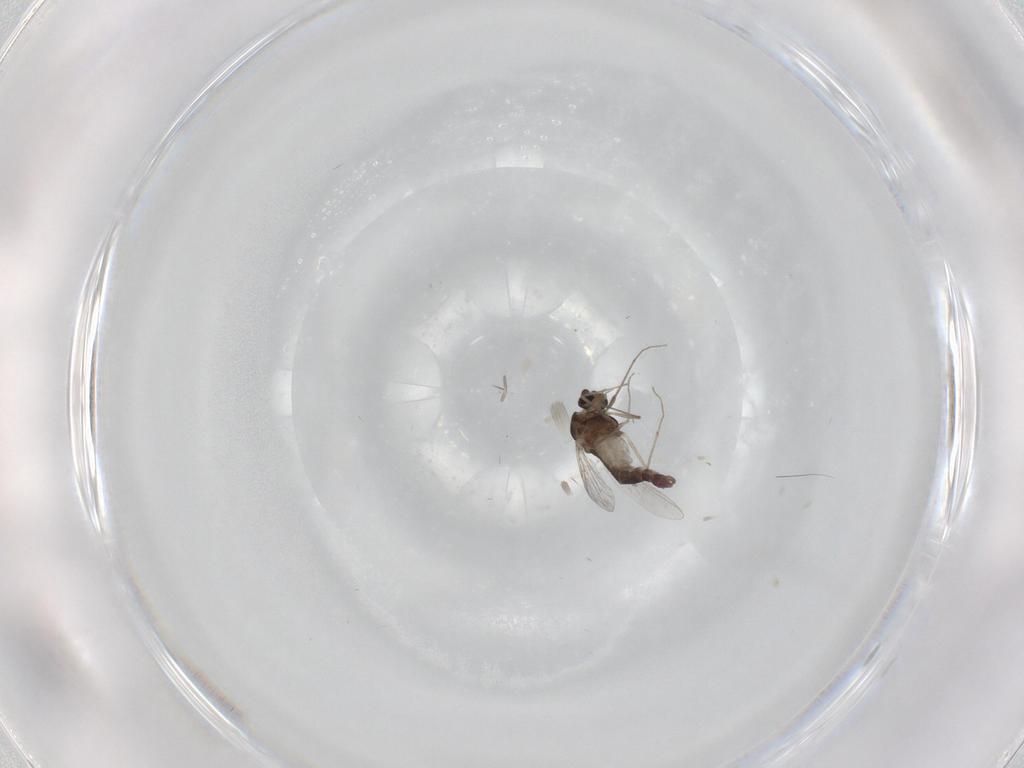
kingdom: Animalia
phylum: Arthropoda
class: Insecta
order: Diptera
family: Chironomidae
